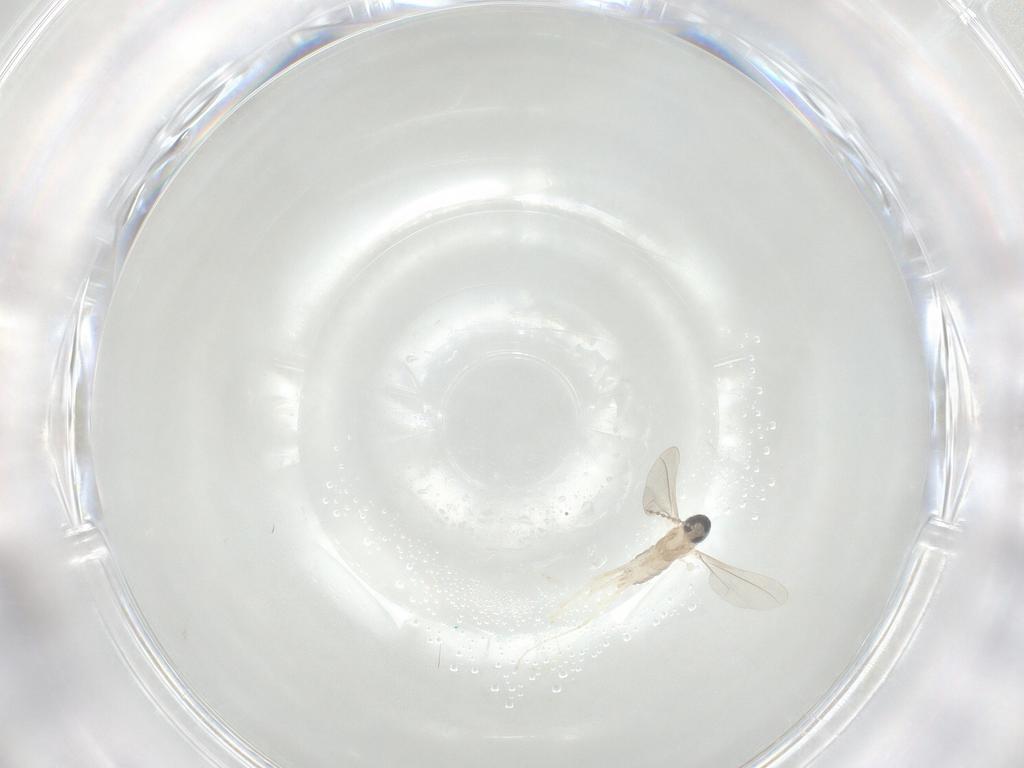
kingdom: Animalia
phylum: Arthropoda
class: Insecta
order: Diptera
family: Cecidomyiidae
